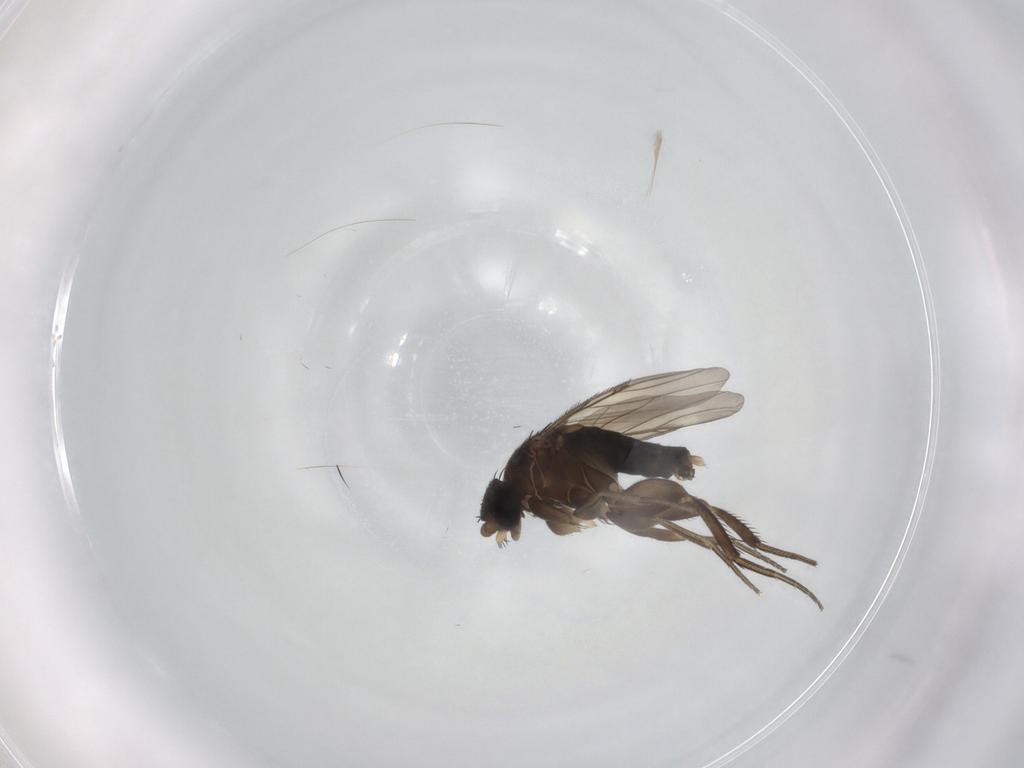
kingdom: Animalia
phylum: Arthropoda
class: Insecta
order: Diptera
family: Phoridae
